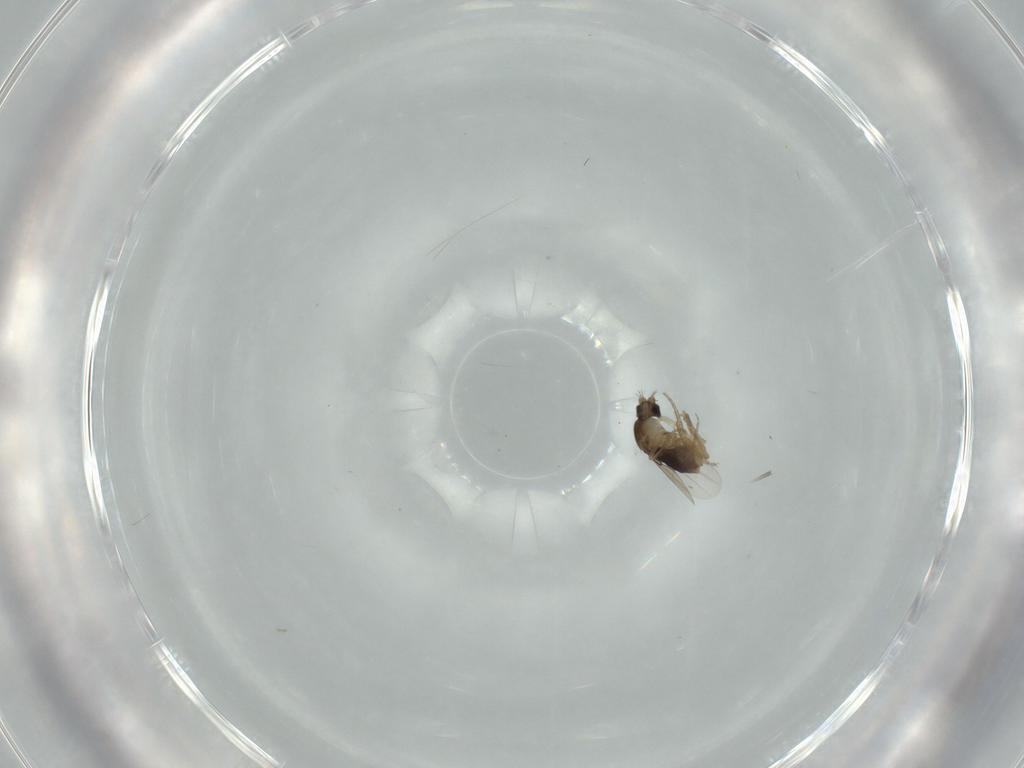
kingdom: Animalia
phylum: Arthropoda
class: Insecta
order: Diptera
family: Phoridae
